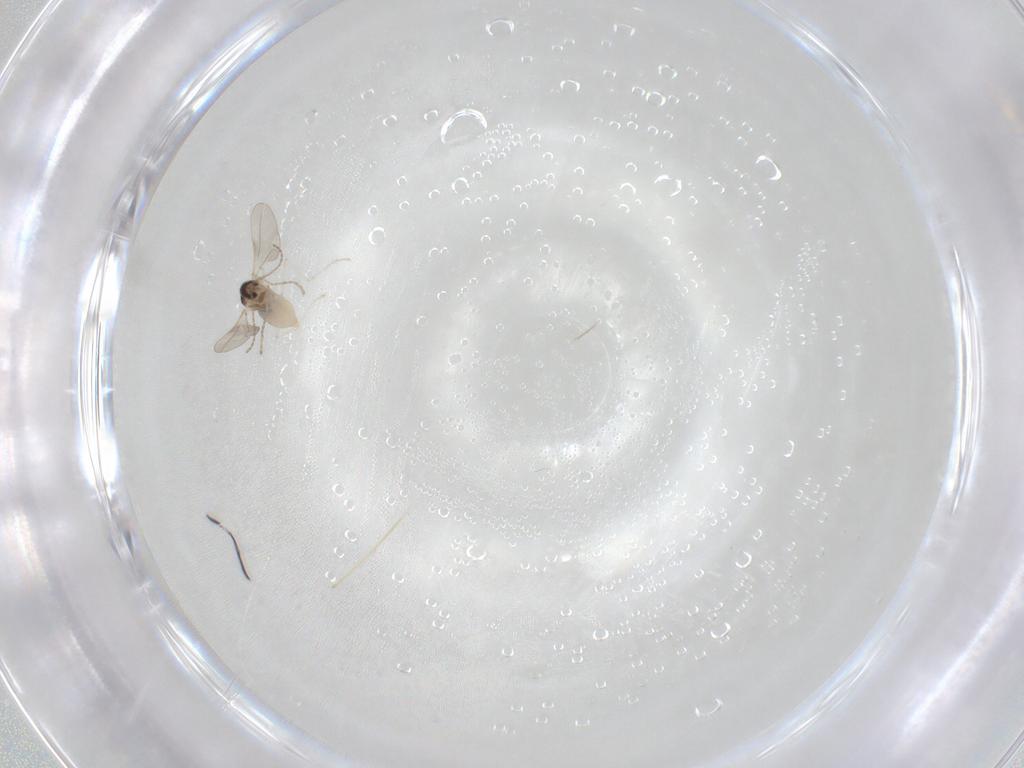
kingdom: Animalia
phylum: Arthropoda
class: Insecta
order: Diptera
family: Cecidomyiidae
